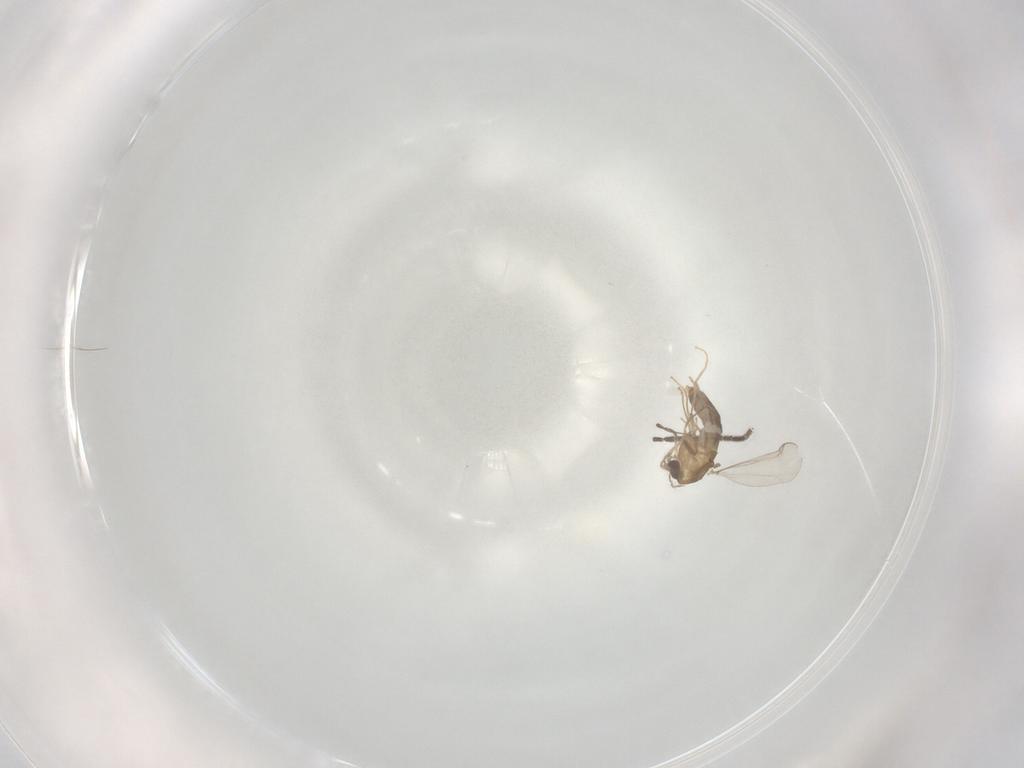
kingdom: Animalia
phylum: Arthropoda
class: Insecta
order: Diptera
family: Chironomidae
